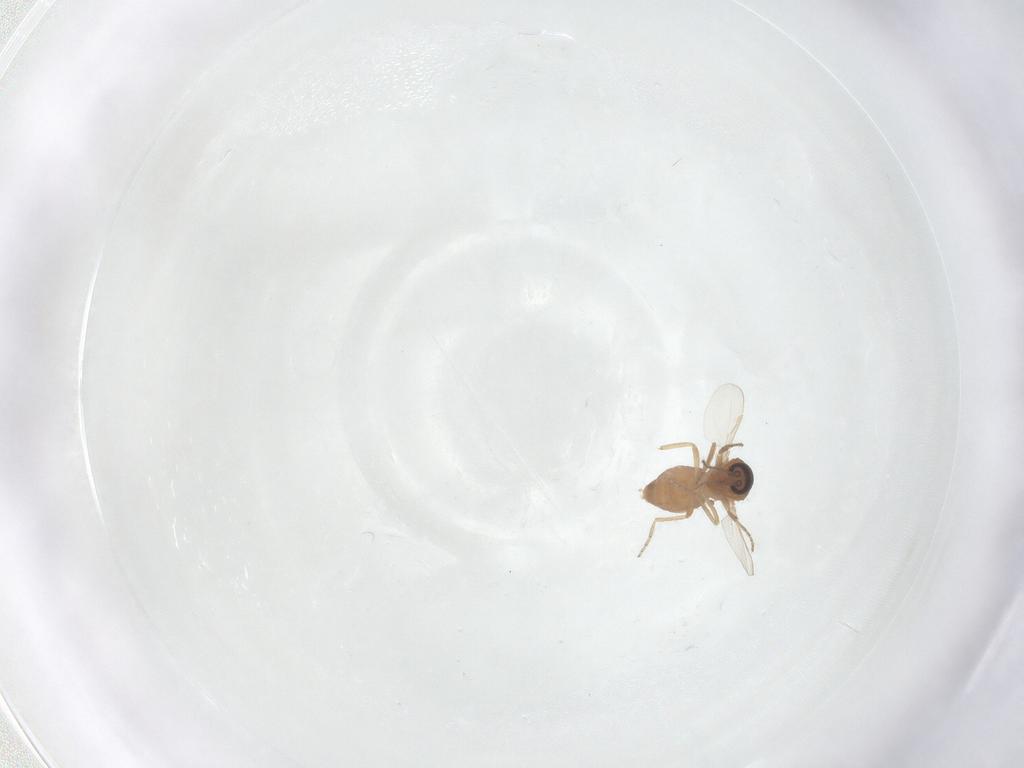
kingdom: Animalia
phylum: Arthropoda
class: Insecta
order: Diptera
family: Ceratopogonidae
